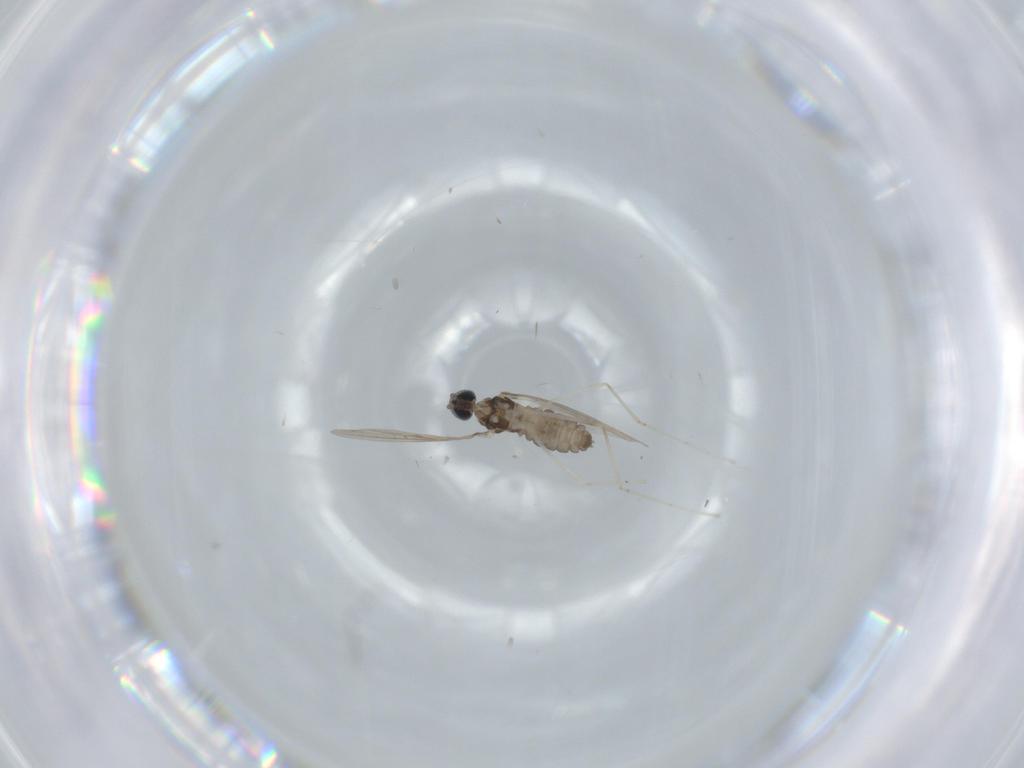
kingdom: Animalia
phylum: Arthropoda
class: Insecta
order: Diptera
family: Cecidomyiidae
